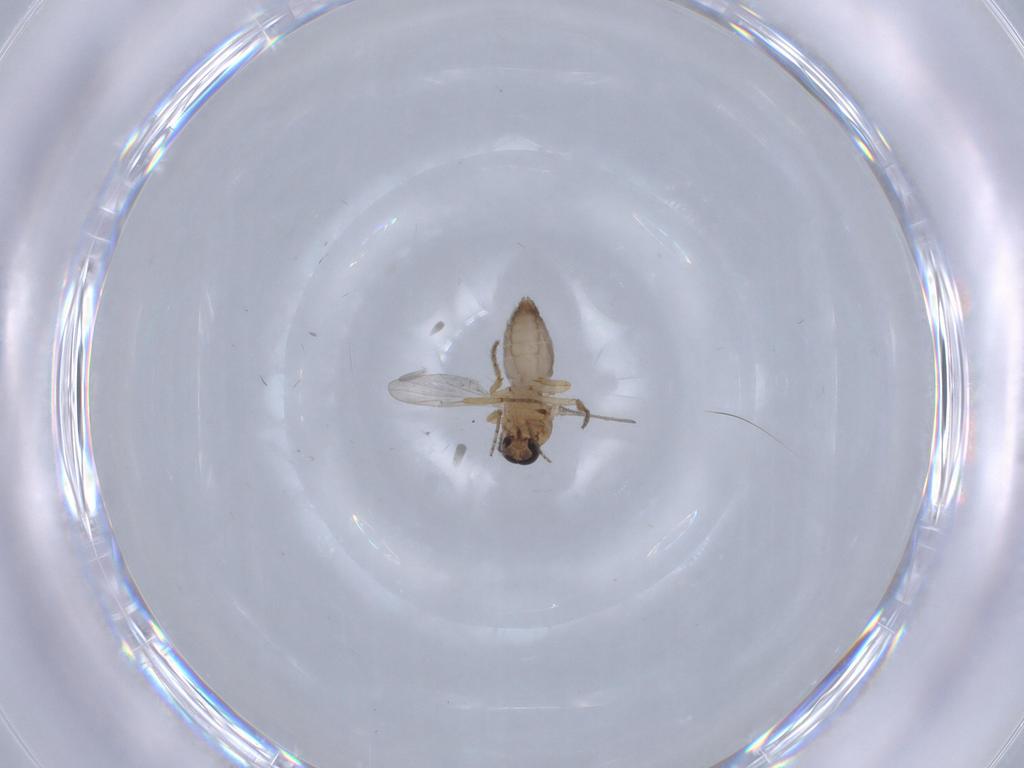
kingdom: Animalia
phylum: Arthropoda
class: Insecta
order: Diptera
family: Ceratopogonidae
